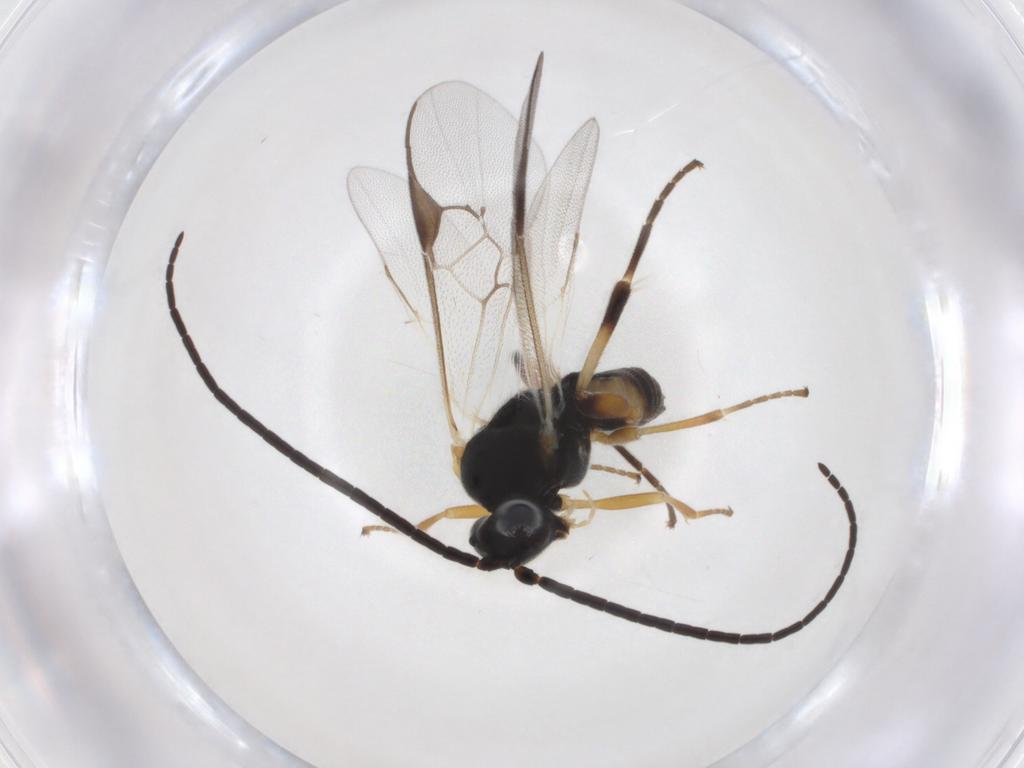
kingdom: Animalia
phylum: Arthropoda
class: Insecta
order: Hymenoptera
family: Braconidae
